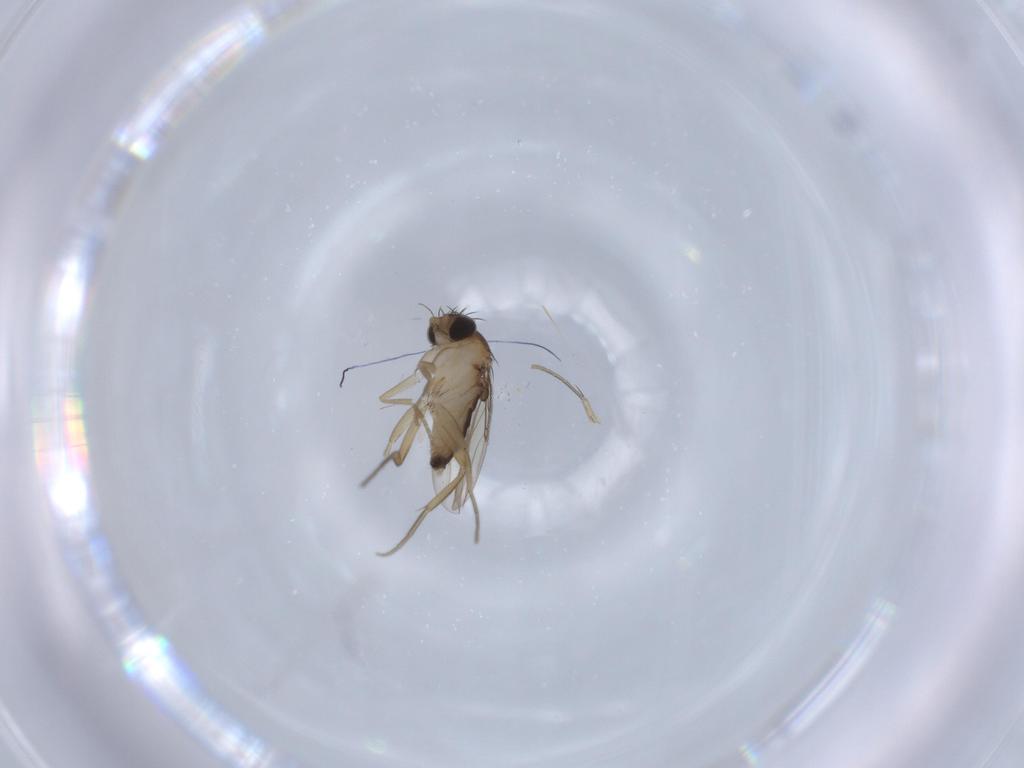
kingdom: Animalia
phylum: Arthropoda
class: Insecta
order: Diptera
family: Phoridae
